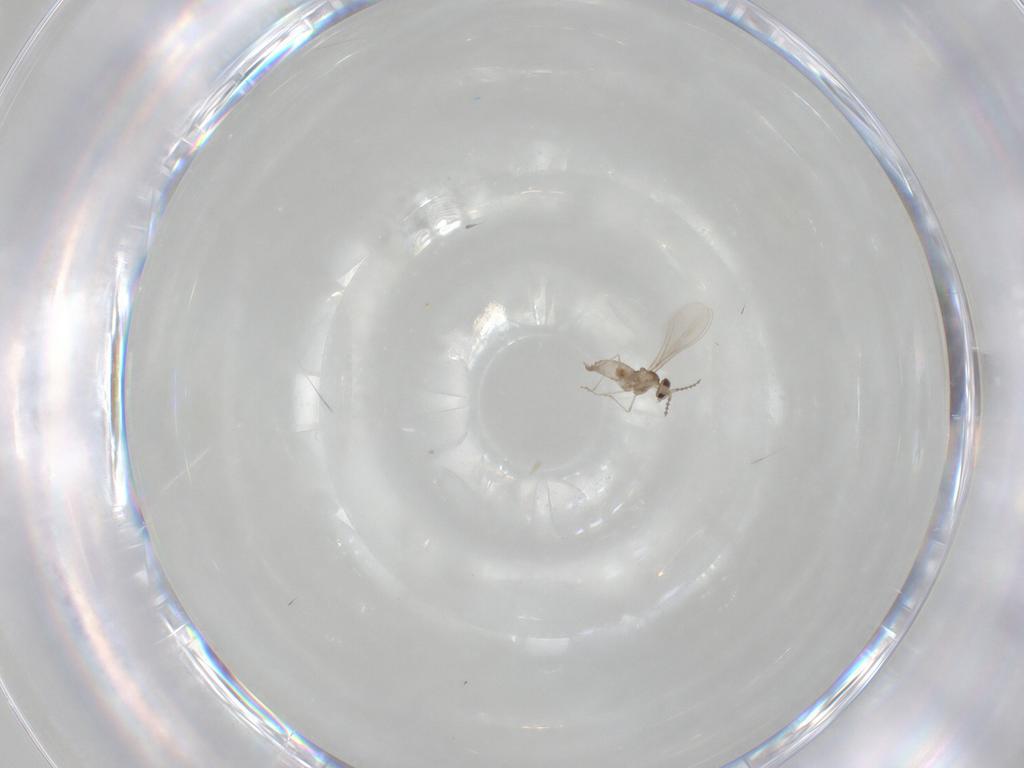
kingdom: Animalia
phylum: Arthropoda
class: Insecta
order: Diptera
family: Cecidomyiidae
